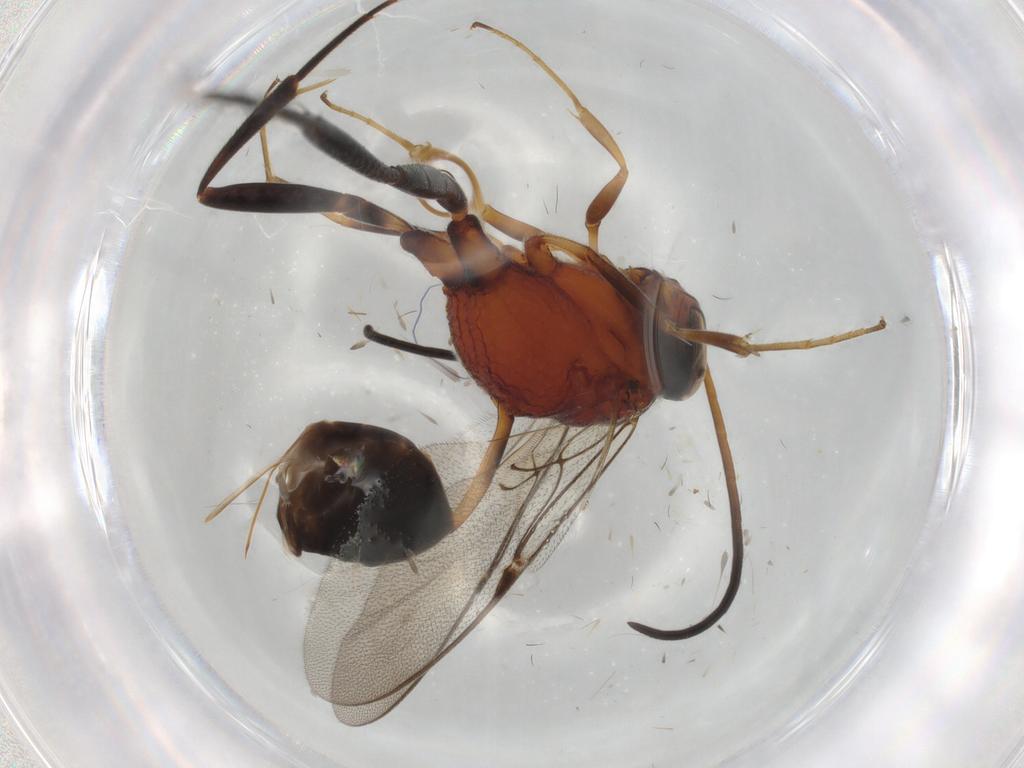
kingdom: Animalia
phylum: Arthropoda
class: Insecta
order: Hymenoptera
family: Evaniidae
